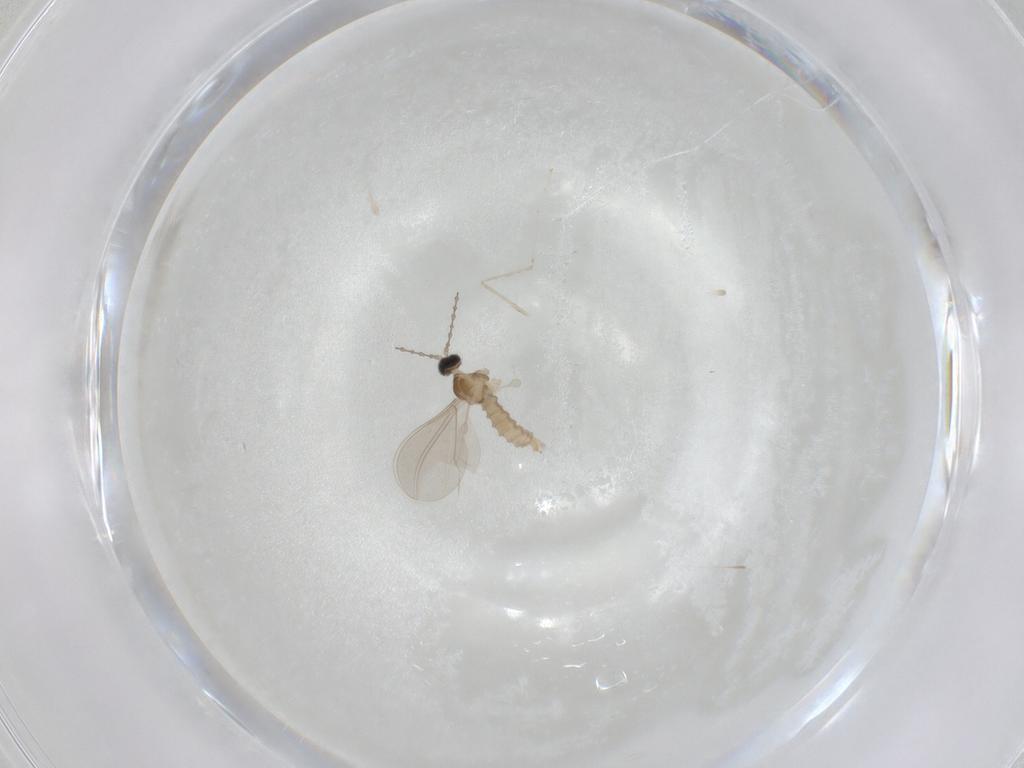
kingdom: Animalia
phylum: Arthropoda
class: Insecta
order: Diptera
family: Cecidomyiidae
